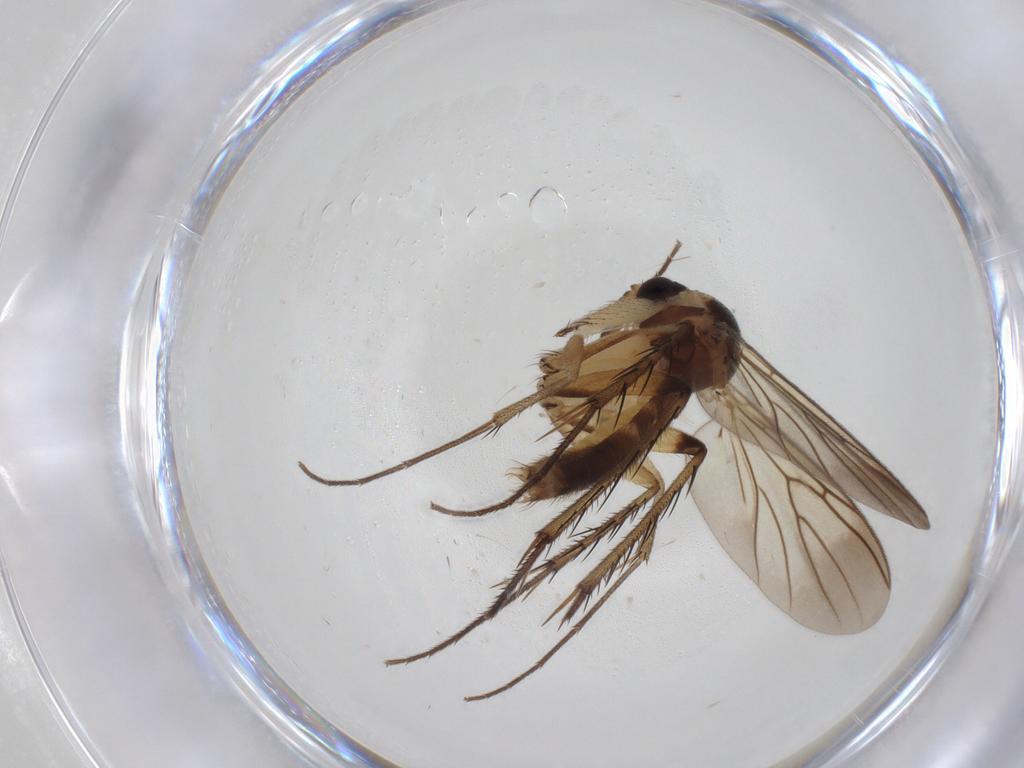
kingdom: Animalia
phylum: Arthropoda
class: Insecta
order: Diptera
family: Mycetophilidae
